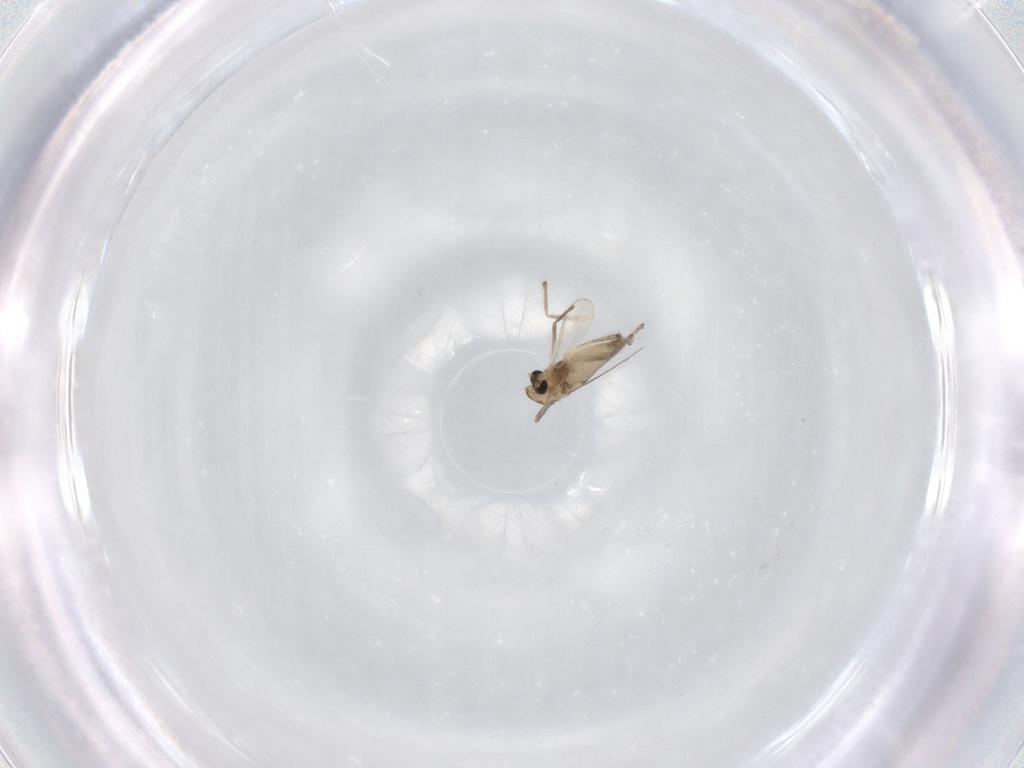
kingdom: Animalia
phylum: Arthropoda
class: Insecta
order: Diptera
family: Chironomidae
